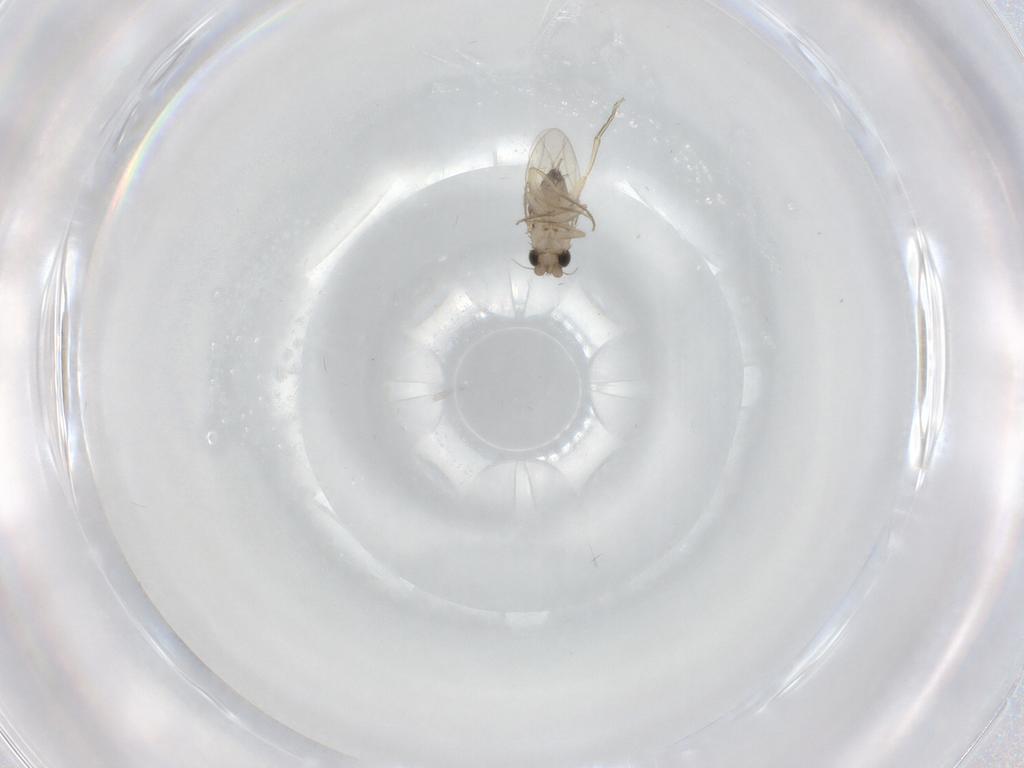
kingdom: Animalia
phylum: Arthropoda
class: Insecta
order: Diptera
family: Phoridae
